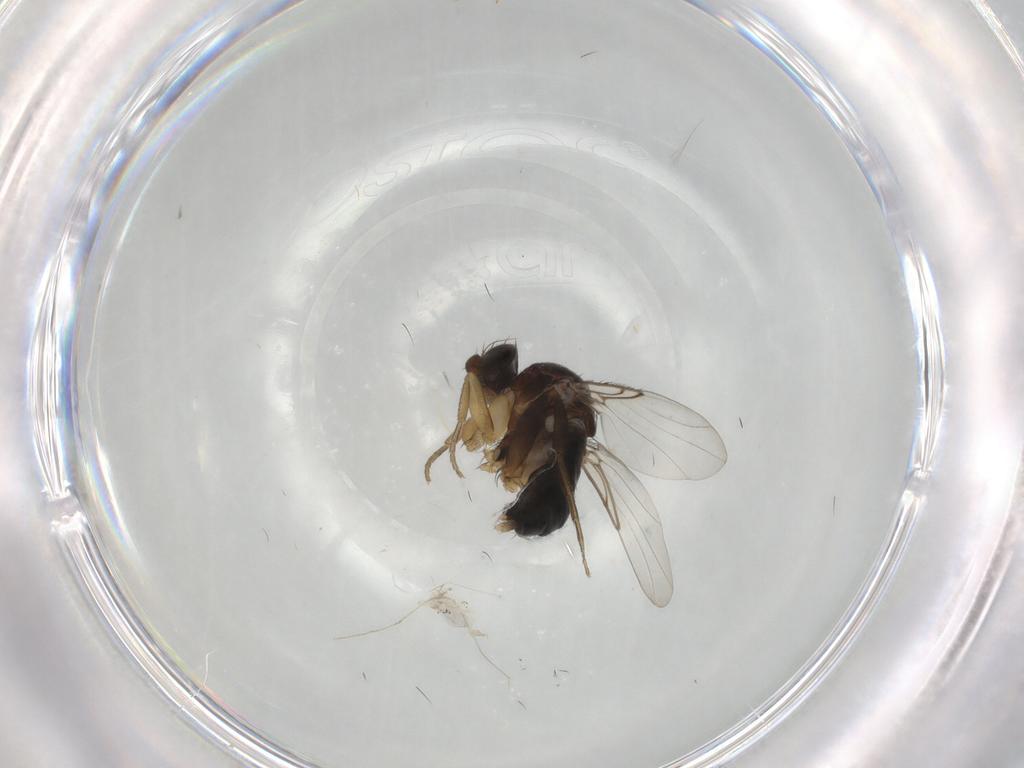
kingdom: Animalia
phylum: Arthropoda
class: Insecta
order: Diptera
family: Phoridae
